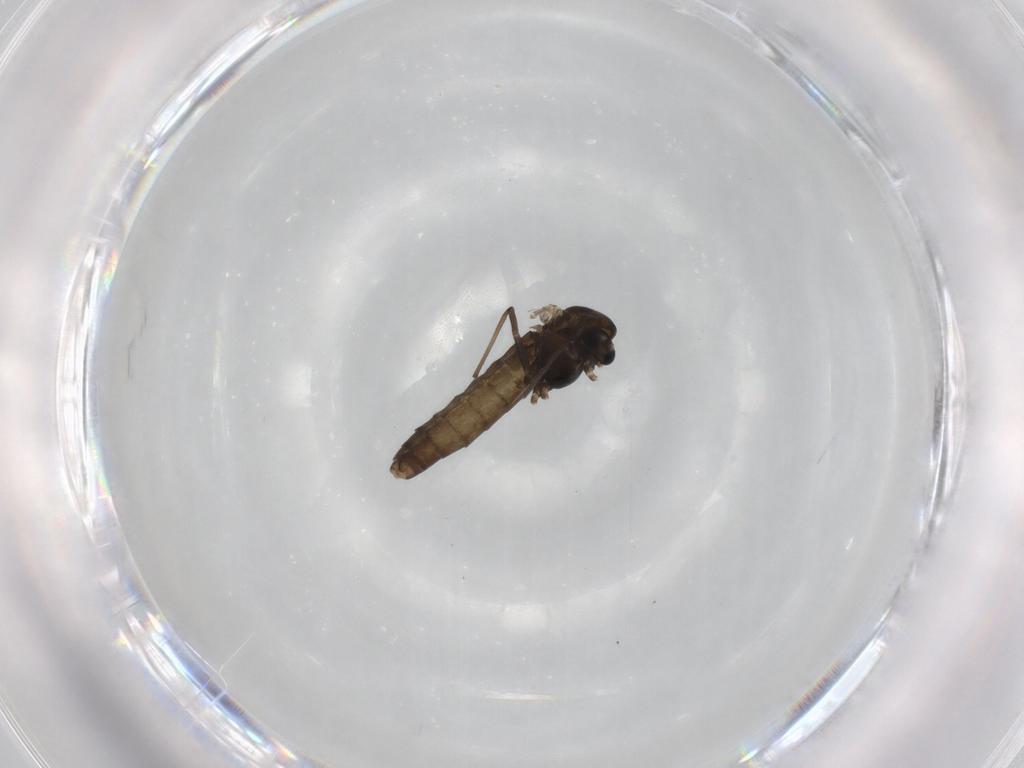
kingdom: Animalia
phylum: Arthropoda
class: Insecta
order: Diptera
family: Chironomidae
